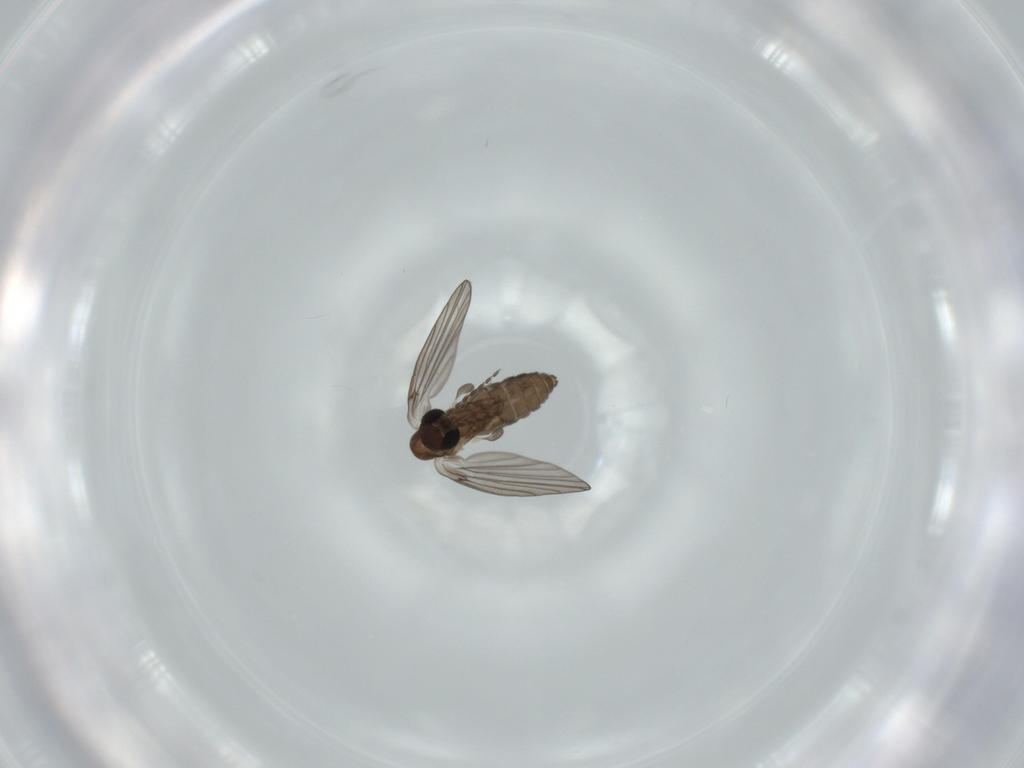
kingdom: Animalia
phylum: Arthropoda
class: Insecta
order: Diptera
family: Psychodidae
